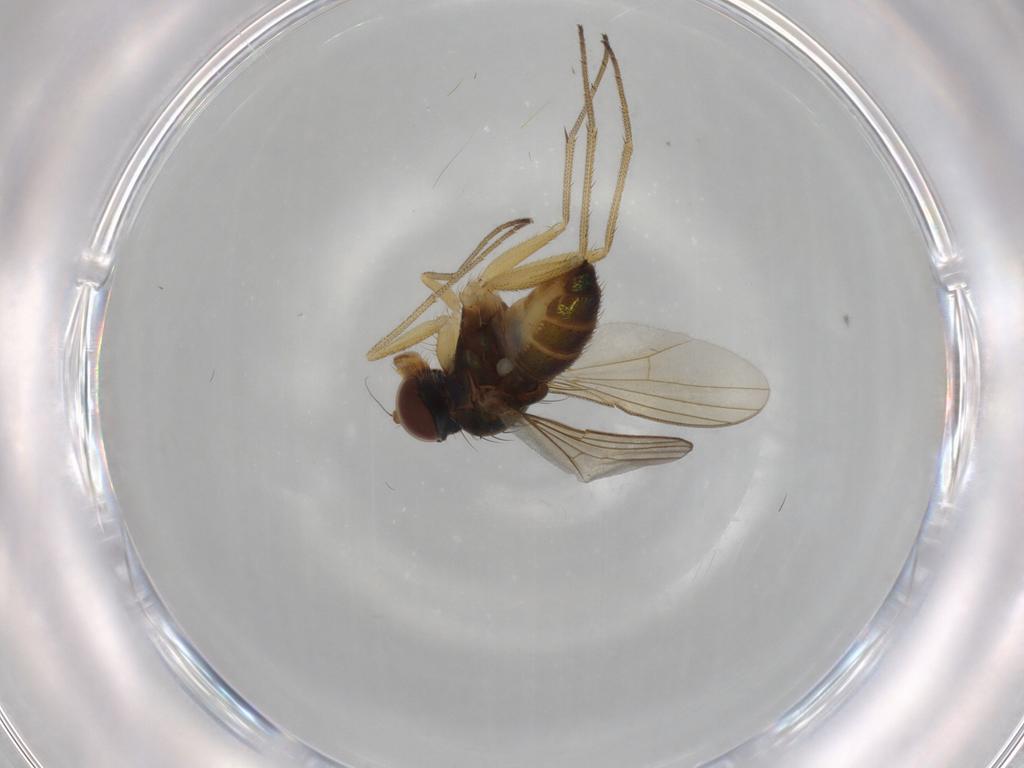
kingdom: Animalia
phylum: Arthropoda
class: Insecta
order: Diptera
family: Dolichopodidae
